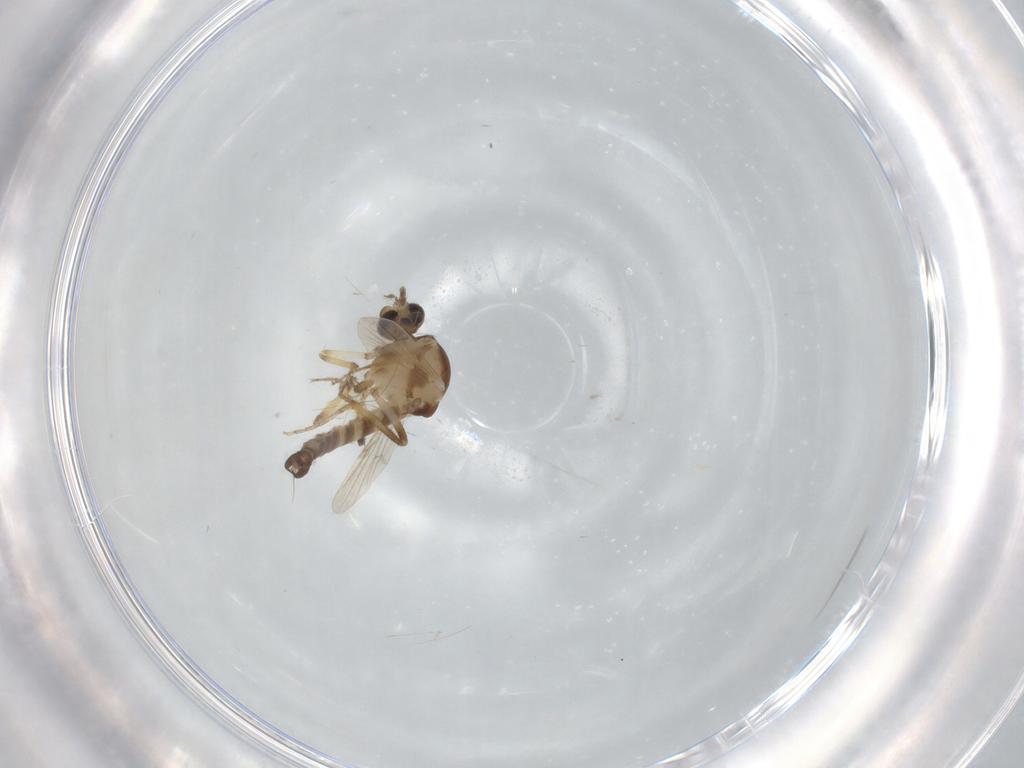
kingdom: Animalia
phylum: Arthropoda
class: Insecta
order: Diptera
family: Ceratopogonidae
